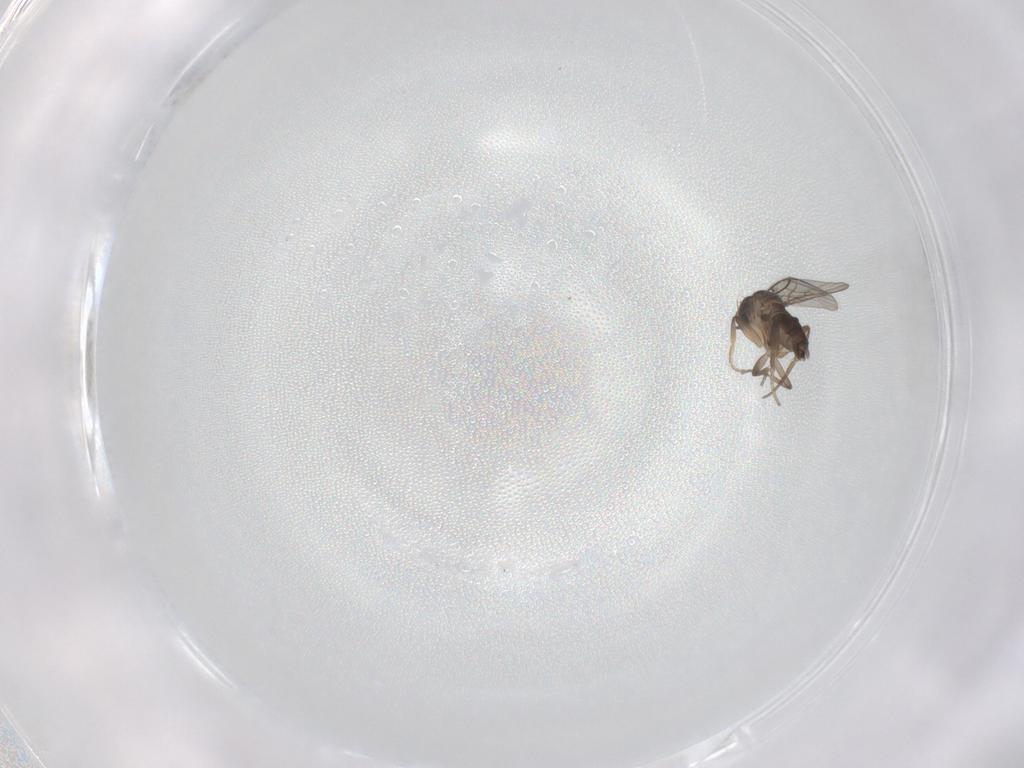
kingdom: Animalia
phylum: Arthropoda
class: Insecta
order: Diptera
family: Phoridae
